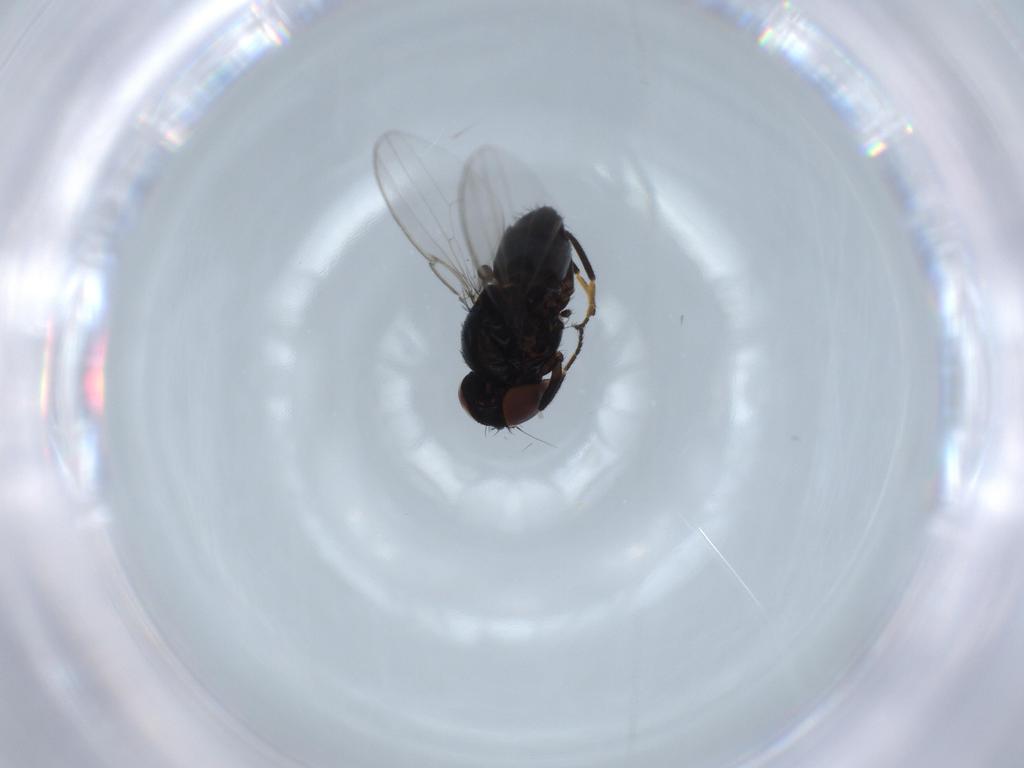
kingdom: Animalia
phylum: Arthropoda
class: Insecta
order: Diptera
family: Milichiidae
